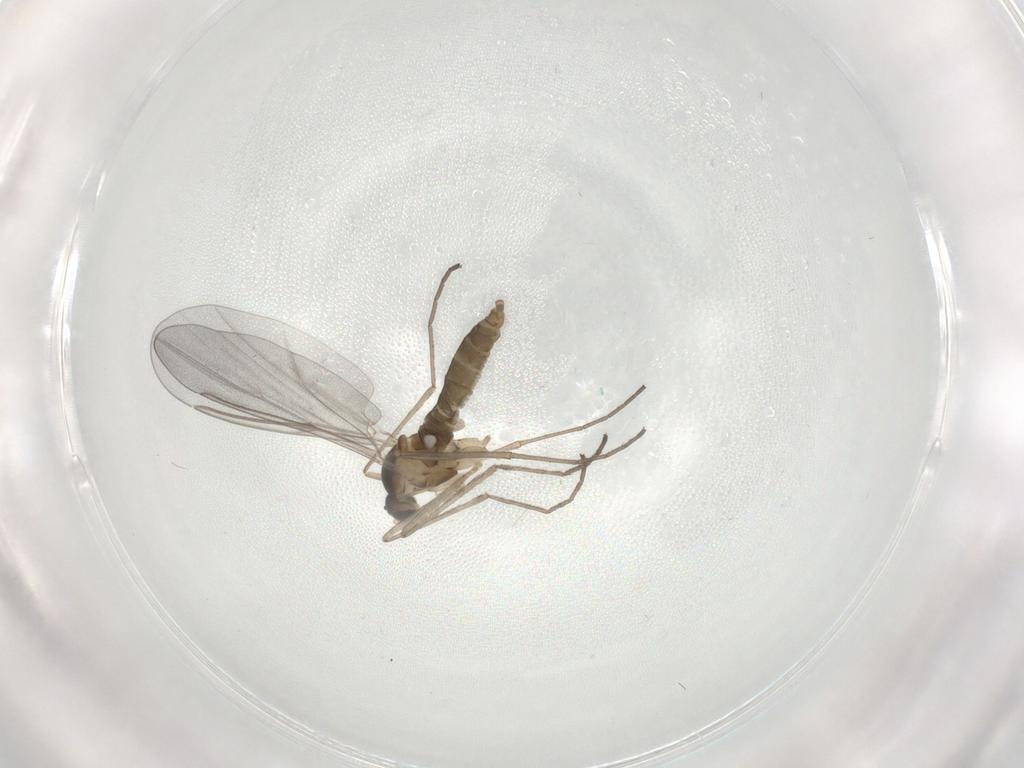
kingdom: Animalia
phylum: Arthropoda
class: Insecta
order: Diptera
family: Cecidomyiidae
